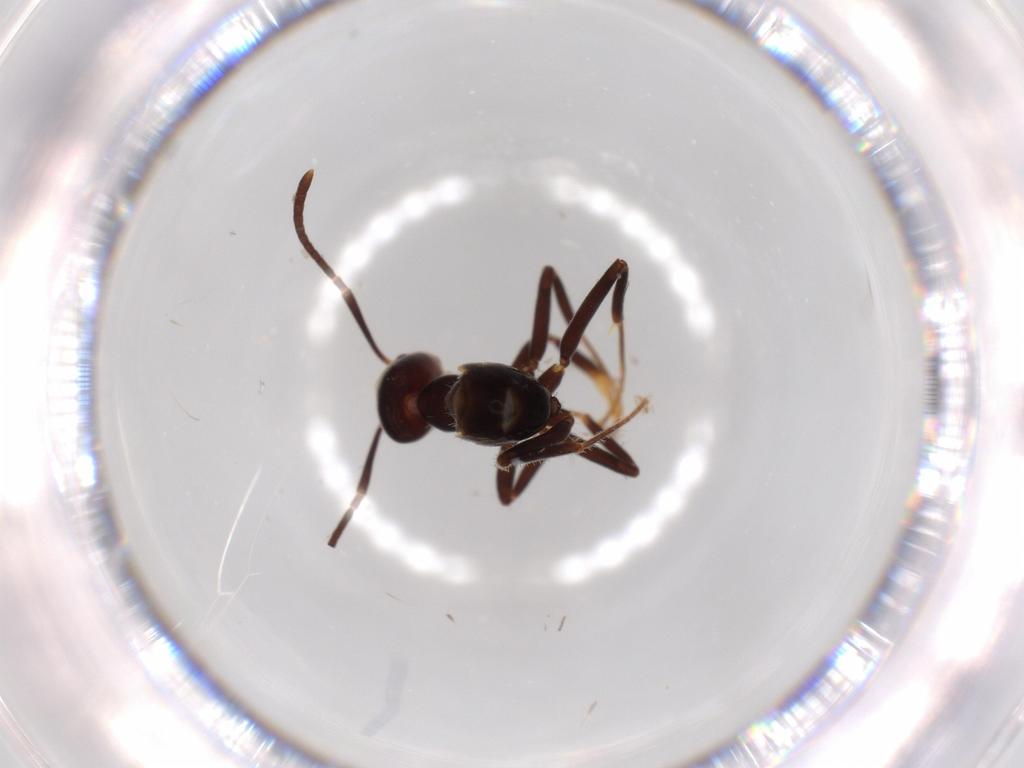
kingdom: Animalia
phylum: Arthropoda
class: Insecta
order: Hymenoptera
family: Formicidae
